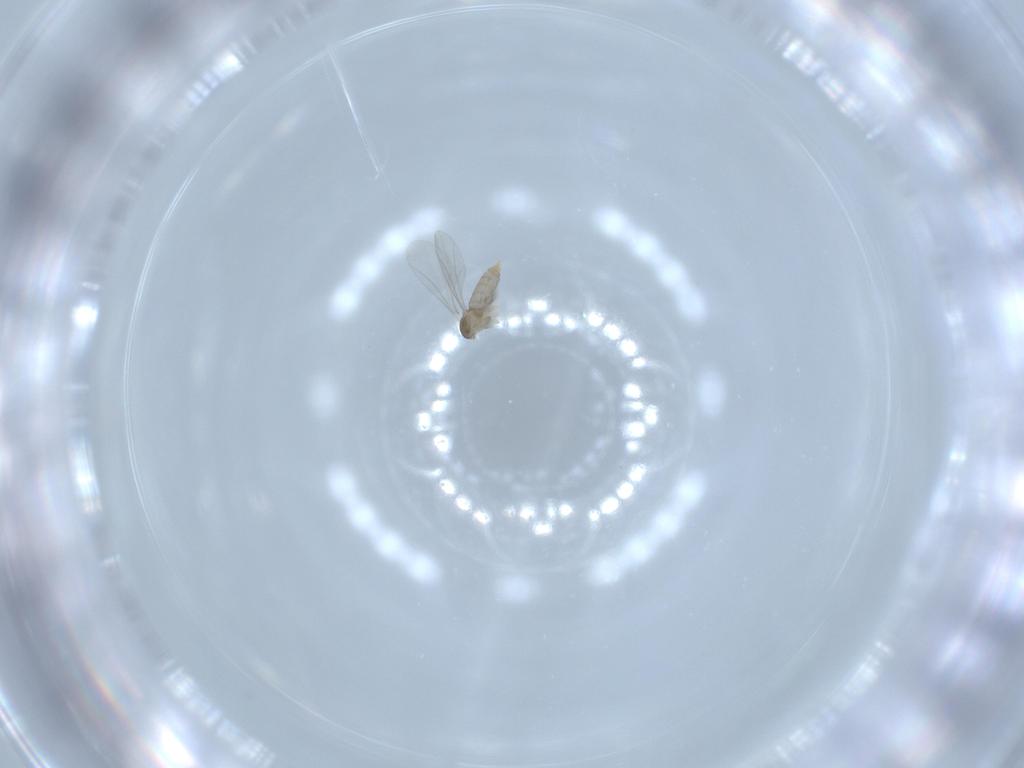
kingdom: Animalia
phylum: Arthropoda
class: Insecta
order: Diptera
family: Cecidomyiidae
